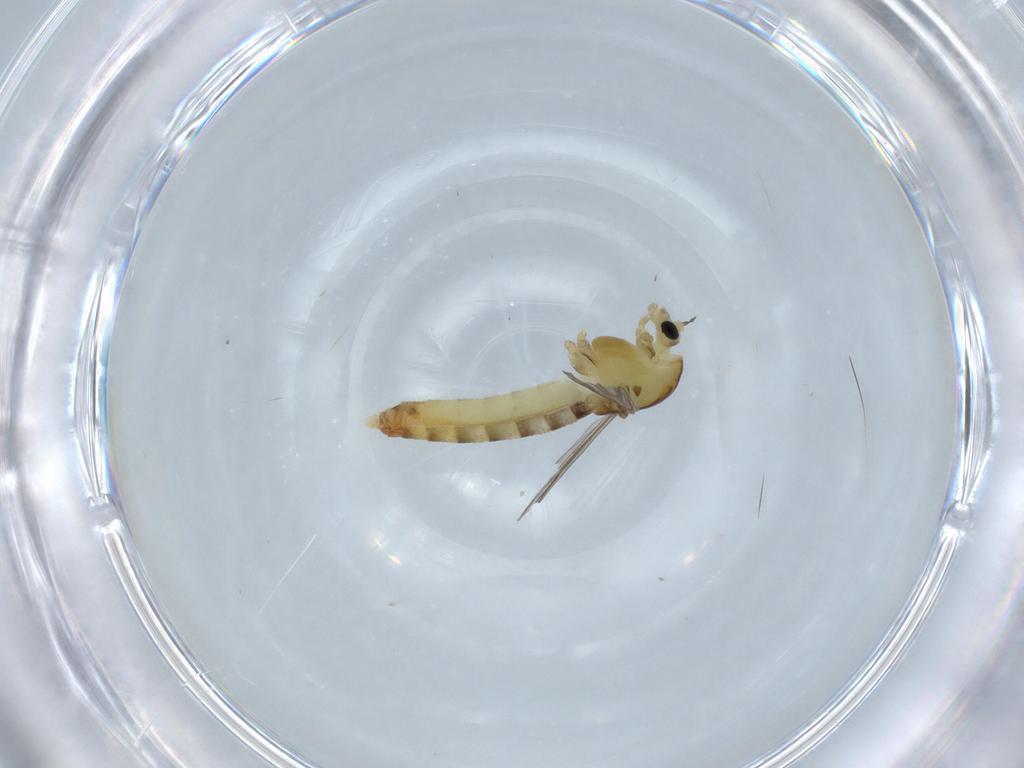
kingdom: Animalia
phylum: Arthropoda
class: Insecta
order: Diptera
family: Chironomidae
